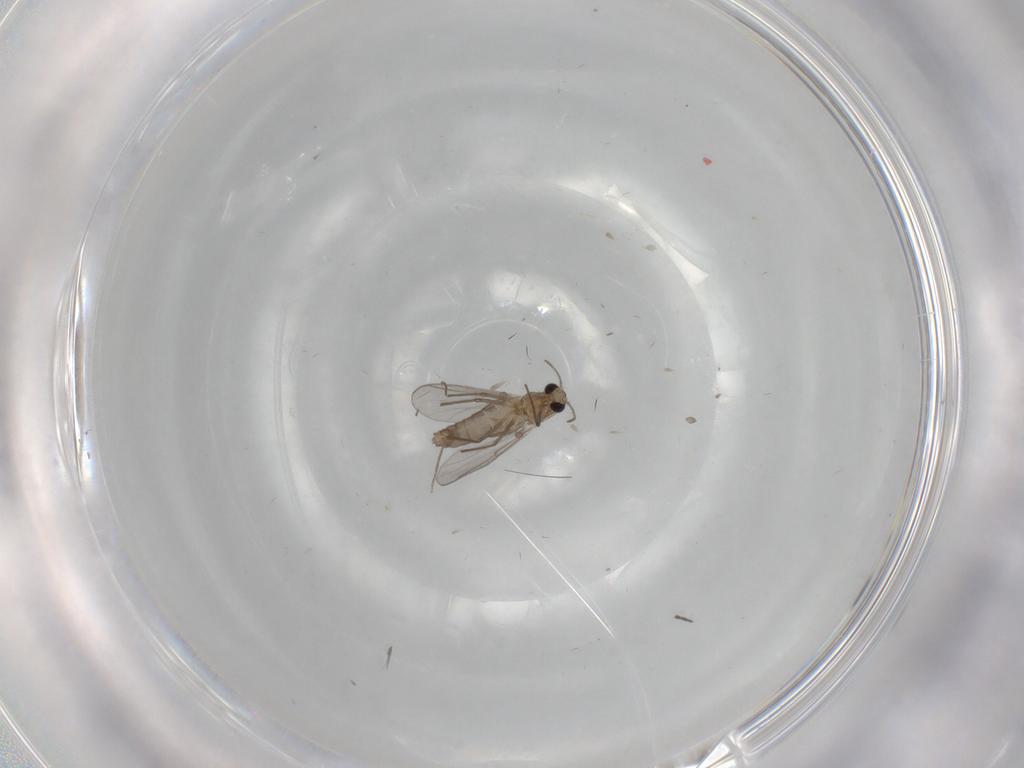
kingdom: Animalia
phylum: Arthropoda
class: Insecta
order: Diptera
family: Chironomidae
